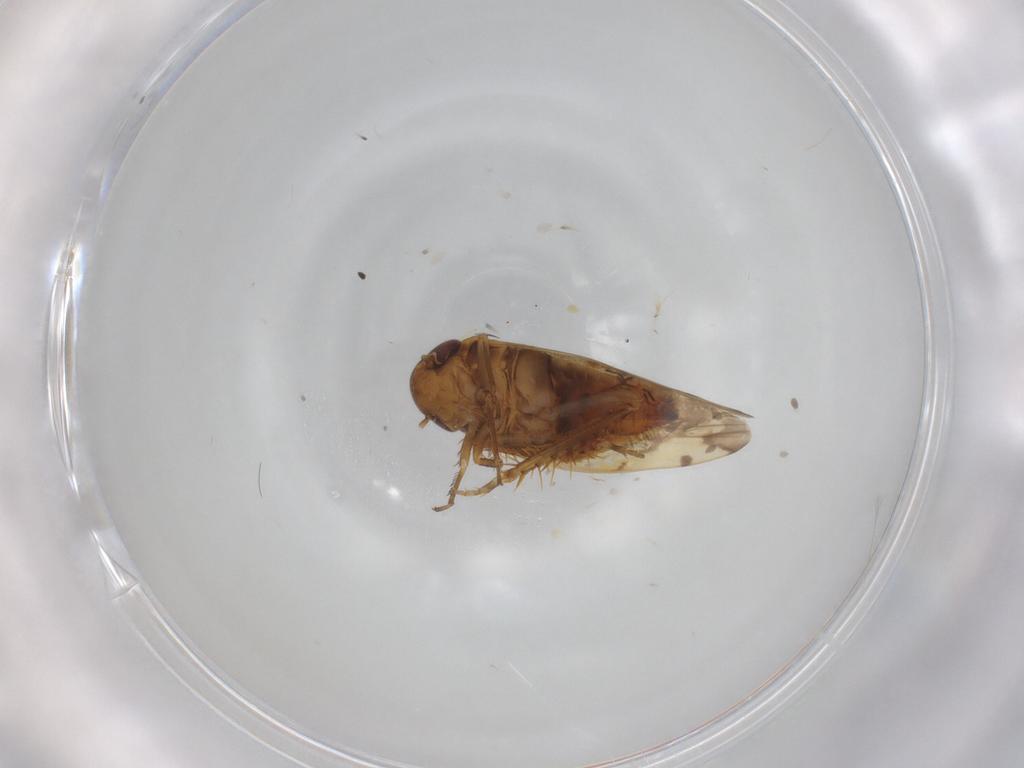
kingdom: Animalia
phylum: Arthropoda
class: Insecta
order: Hemiptera
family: Cicadellidae
